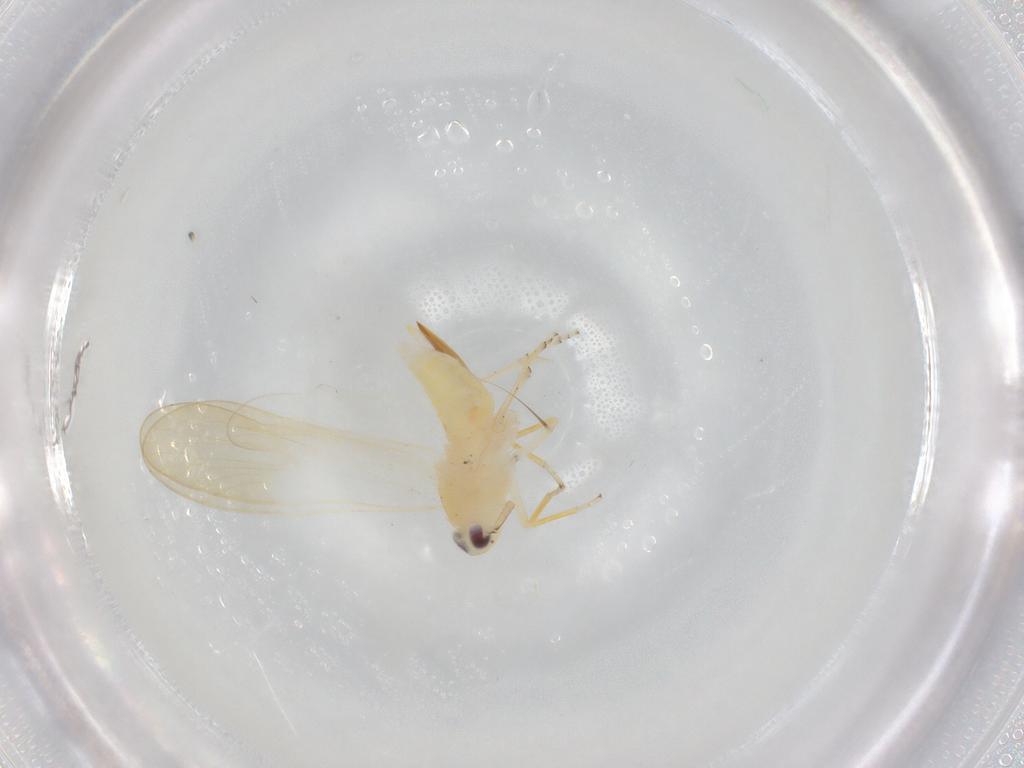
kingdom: Animalia
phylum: Arthropoda
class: Insecta
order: Hemiptera
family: Delphacidae
